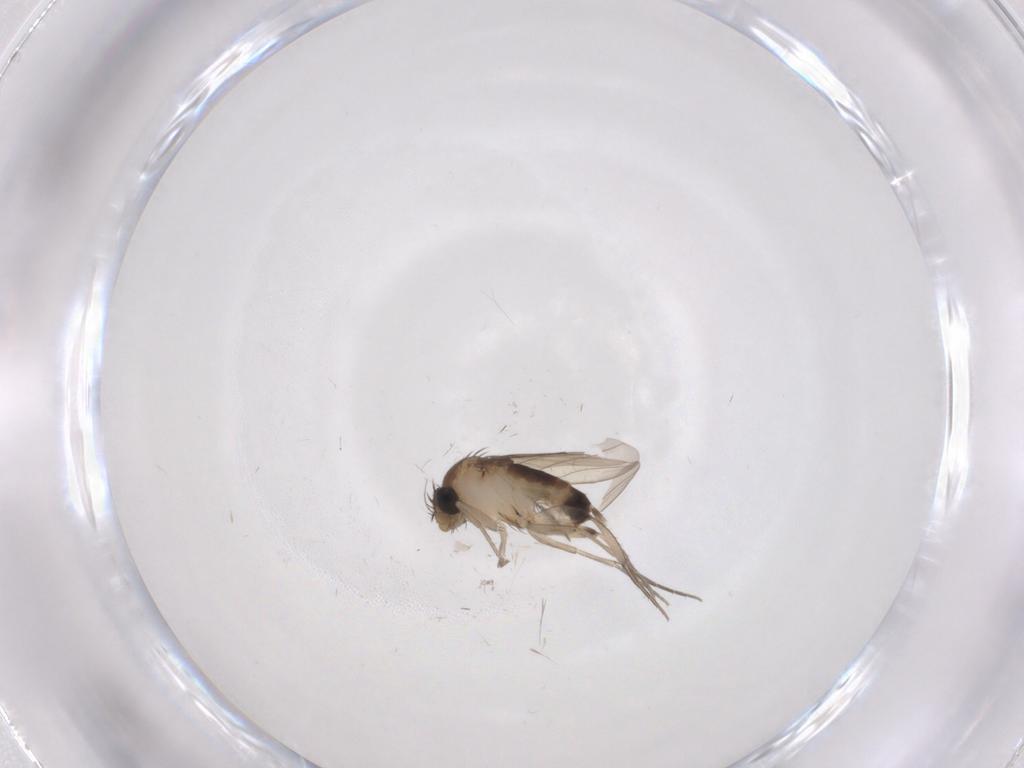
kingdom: Animalia
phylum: Arthropoda
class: Insecta
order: Diptera
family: Phoridae
